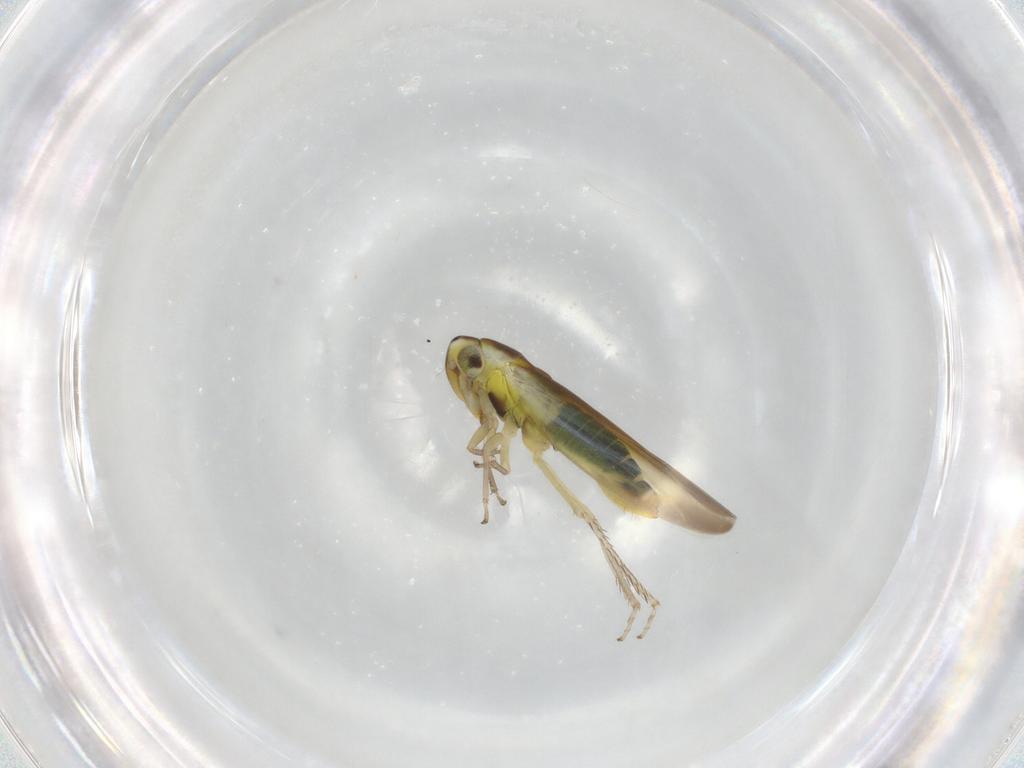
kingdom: Animalia
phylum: Arthropoda
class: Insecta
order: Hemiptera
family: Cicadellidae
